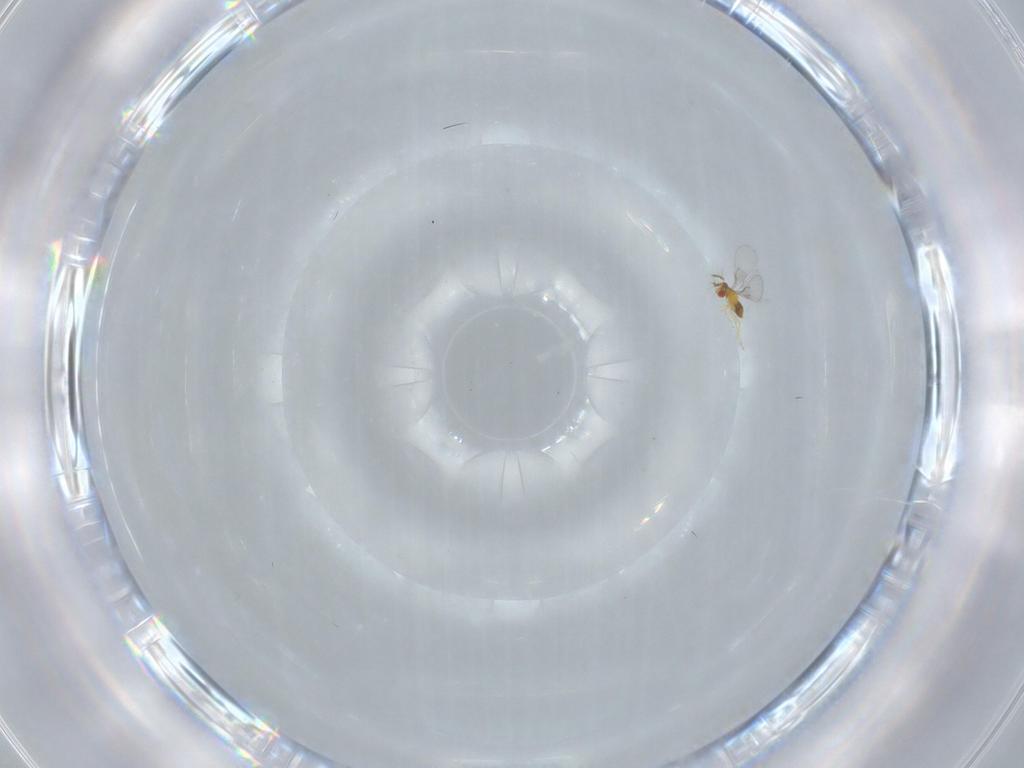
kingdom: Animalia
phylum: Arthropoda
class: Insecta
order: Hymenoptera
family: Trichogrammatidae
